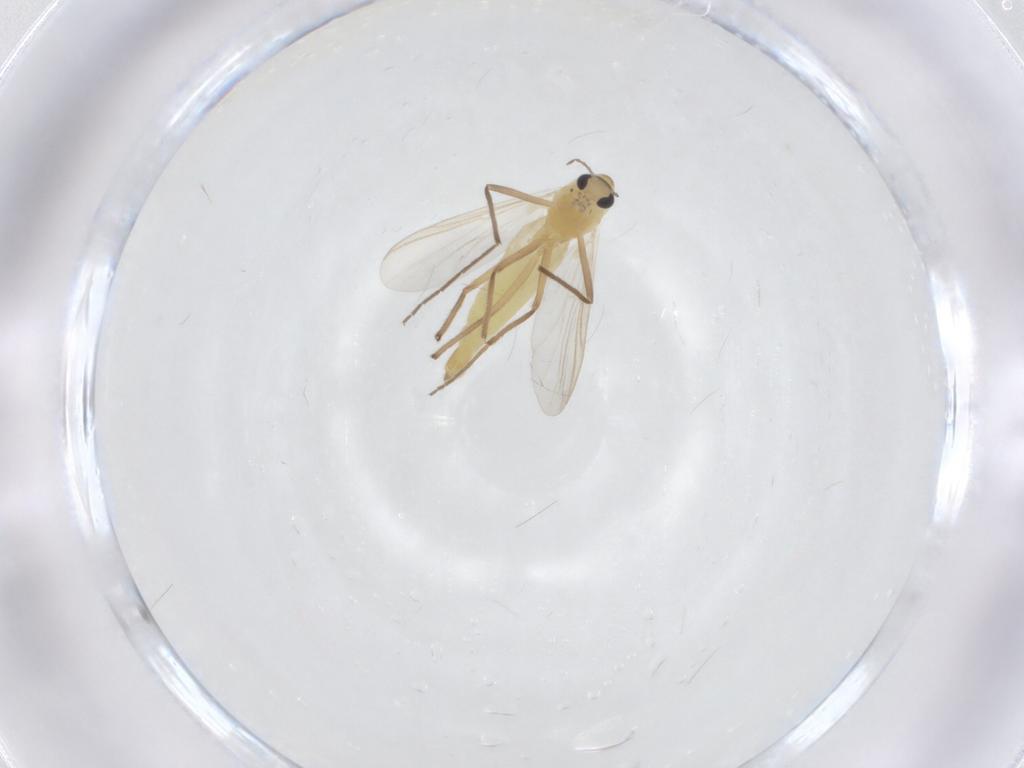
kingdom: Animalia
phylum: Arthropoda
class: Insecta
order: Diptera
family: Chironomidae
